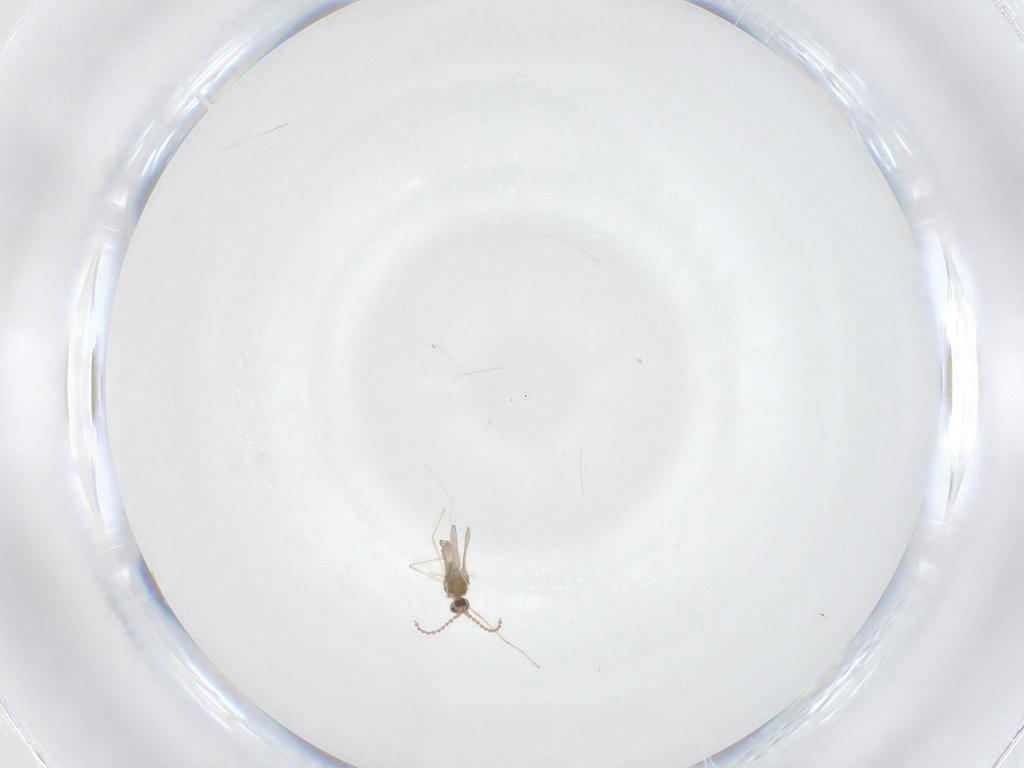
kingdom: Animalia
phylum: Arthropoda
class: Insecta
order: Diptera
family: Cecidomyiidae
